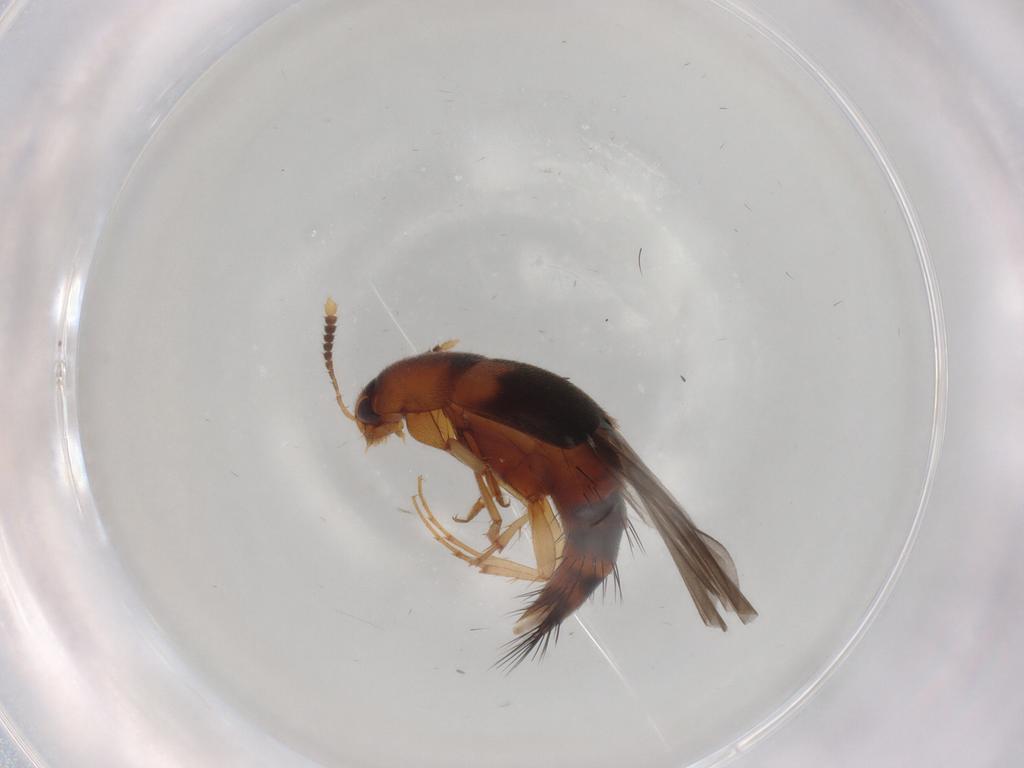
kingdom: Animalia
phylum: Arthropoda
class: Insecta
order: Coleoptera
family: Staphylinidae
